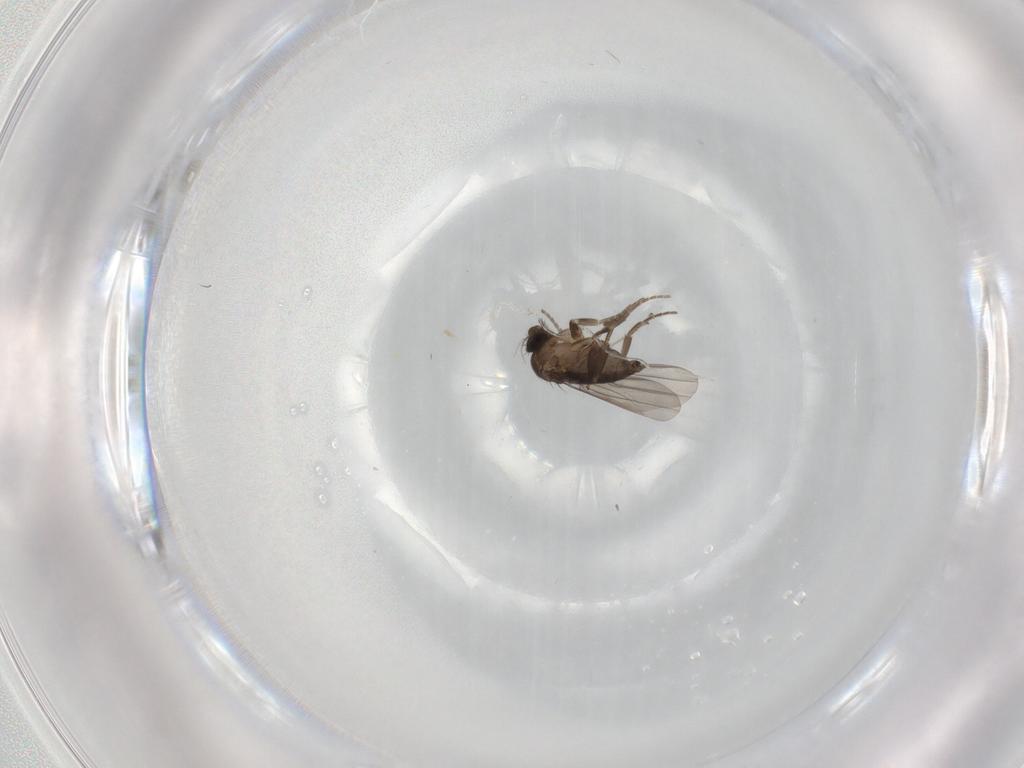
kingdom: Animalia
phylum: Arthropoda
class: Insecta
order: Diptera
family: Phoridae
